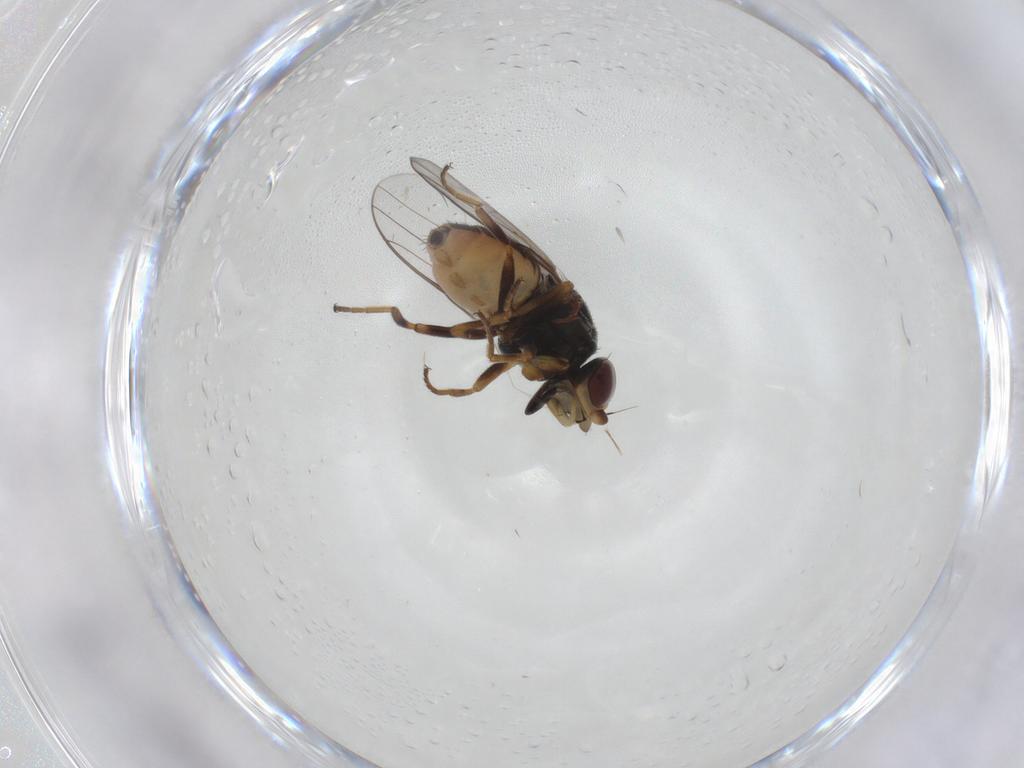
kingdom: Animalia
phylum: Arthropoda
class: Insecta
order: Diptera
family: Chloropidae
